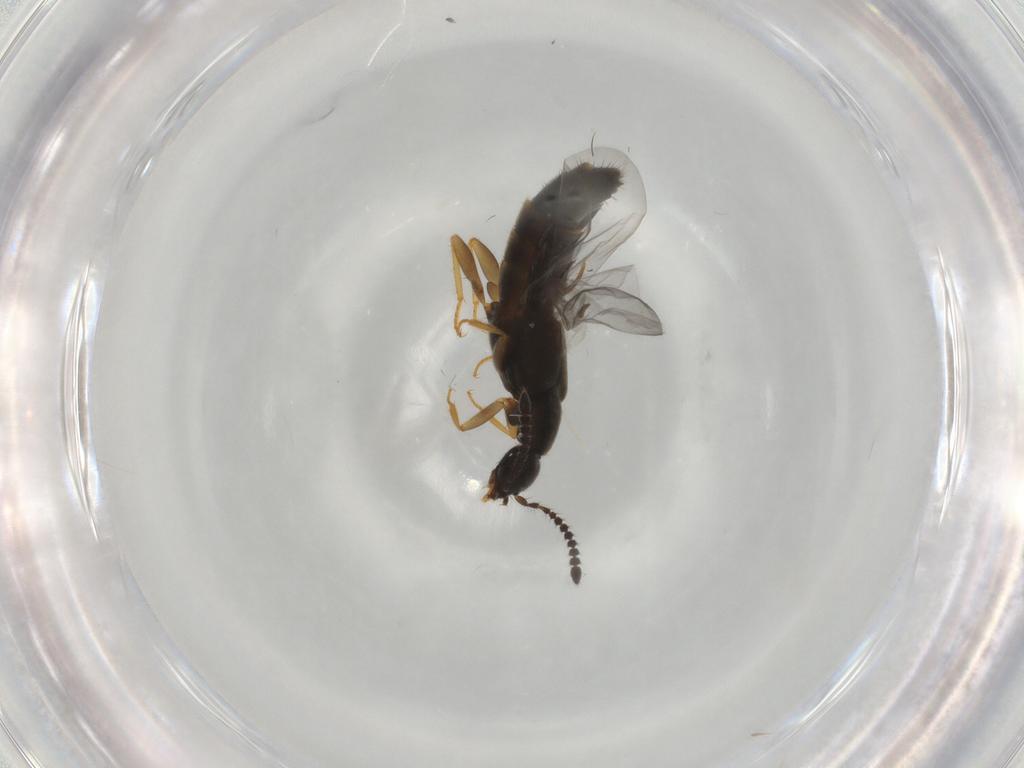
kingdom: Animalia
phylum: Arthropoda
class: Insecta
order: Coleoptera
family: Staphylinidae
